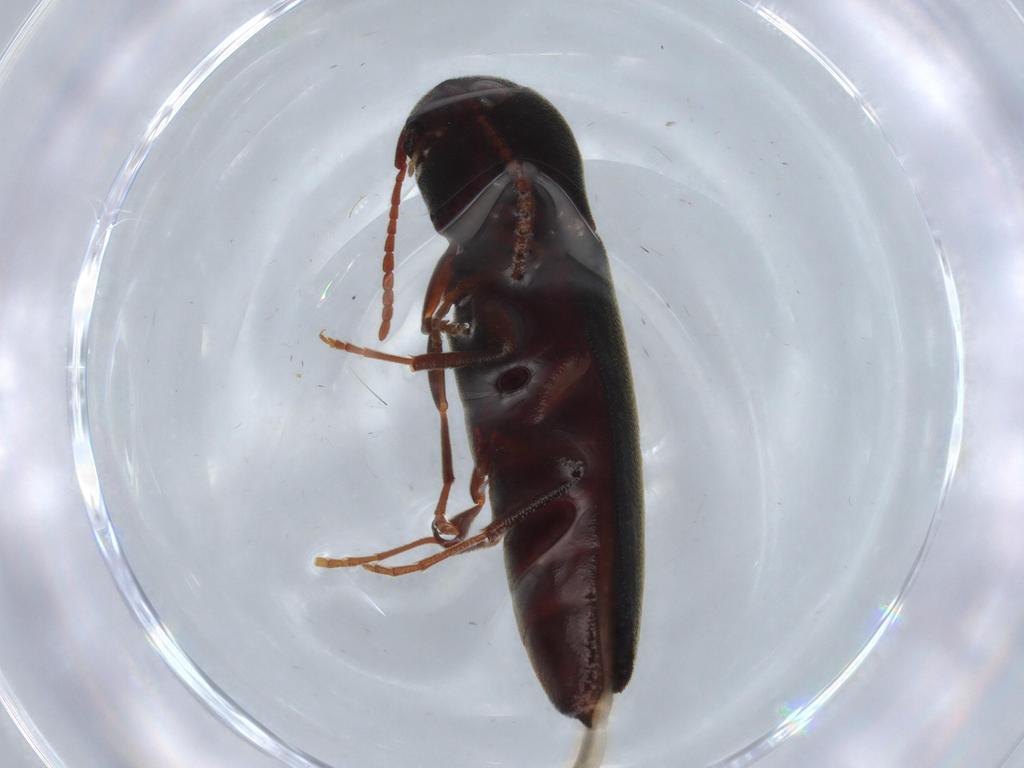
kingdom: Animalia
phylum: Arthropoda
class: Insecta
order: Coleoptera
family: Eucnemidae
